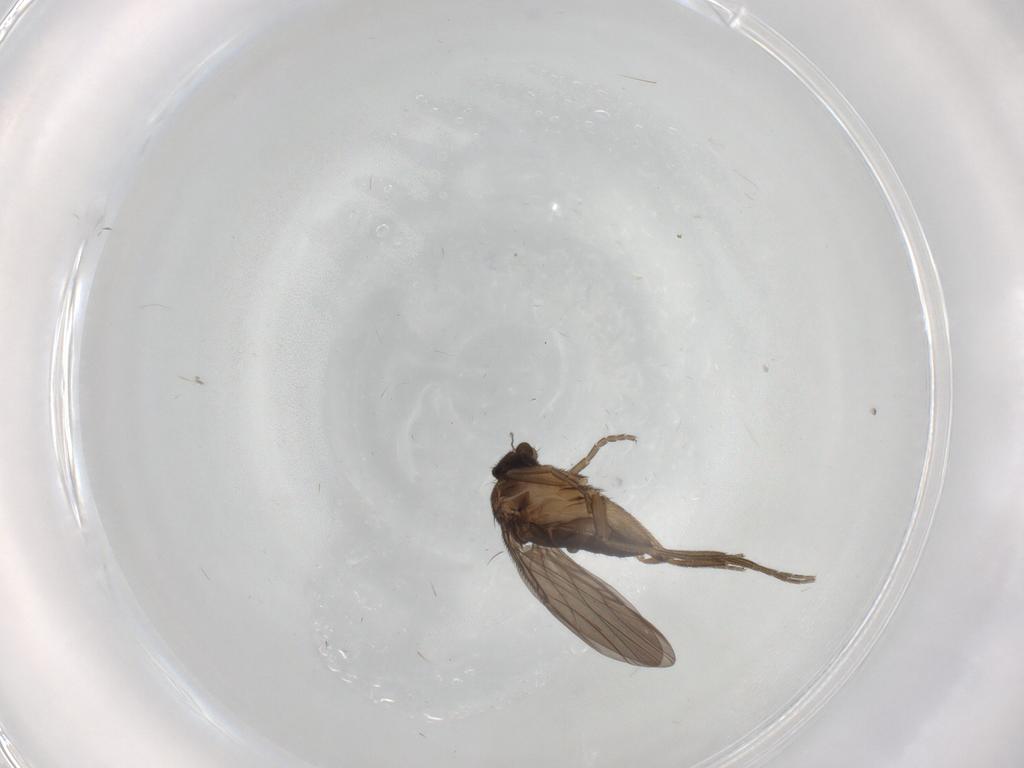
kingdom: Animalia
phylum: Arthropoda
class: Insecta
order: Diptera
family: Phoridae
